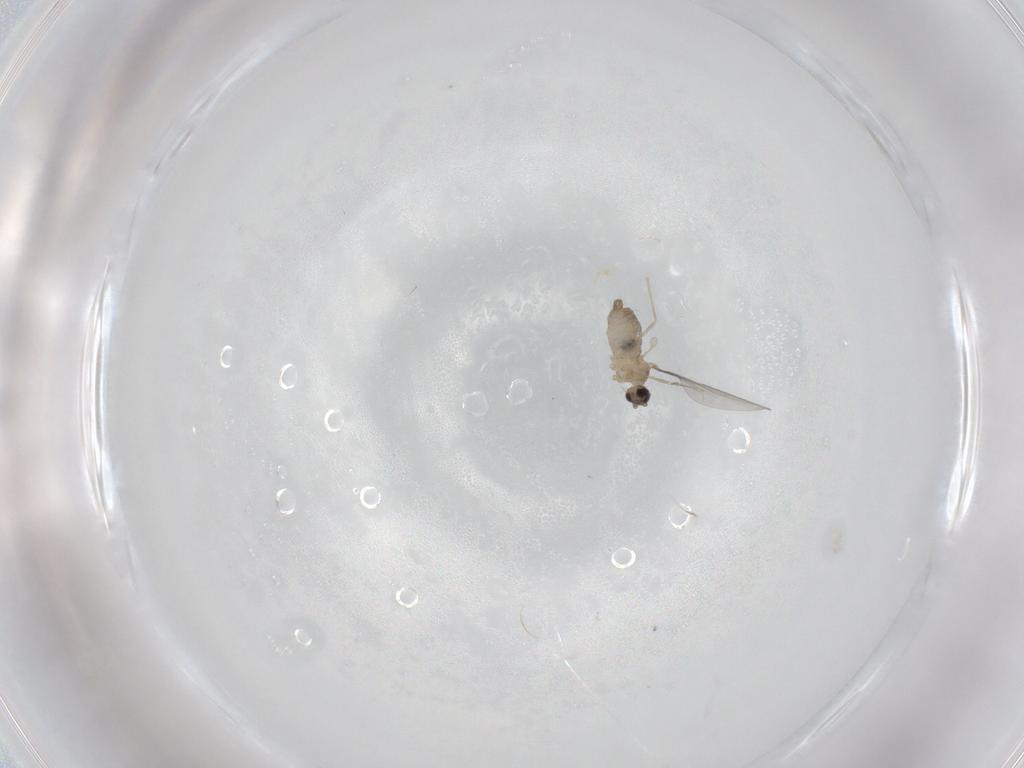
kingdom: Animalia
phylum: Arthropoda
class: Insecta
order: Diptera
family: Cecidomyiidae
